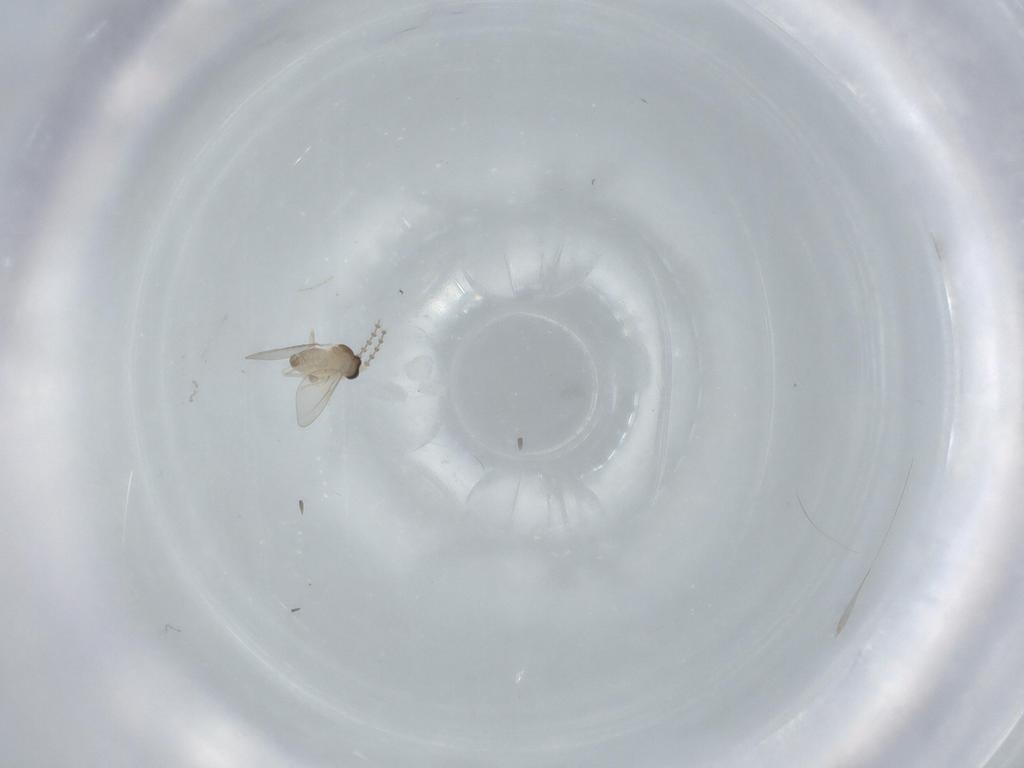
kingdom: Animalia
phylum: Arthropoda
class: Insecta
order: Diptera
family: Cecidomyiidae
